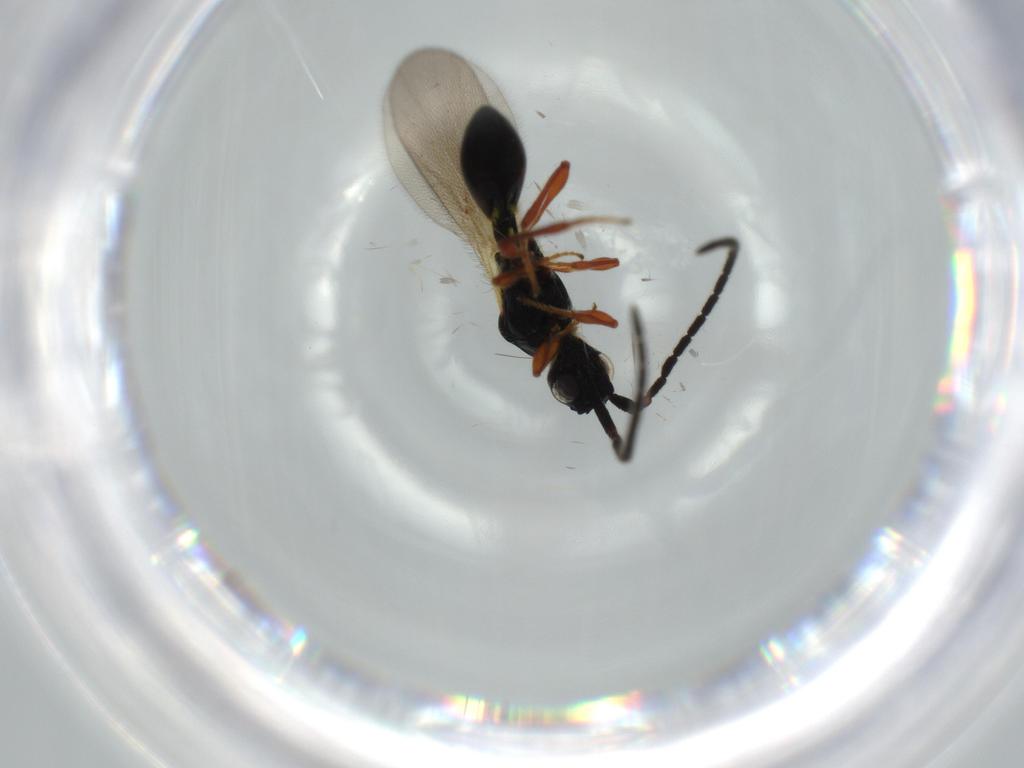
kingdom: Animalia
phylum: Arthropoda
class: Insecta
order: Hymenoptera
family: Diapriidae
